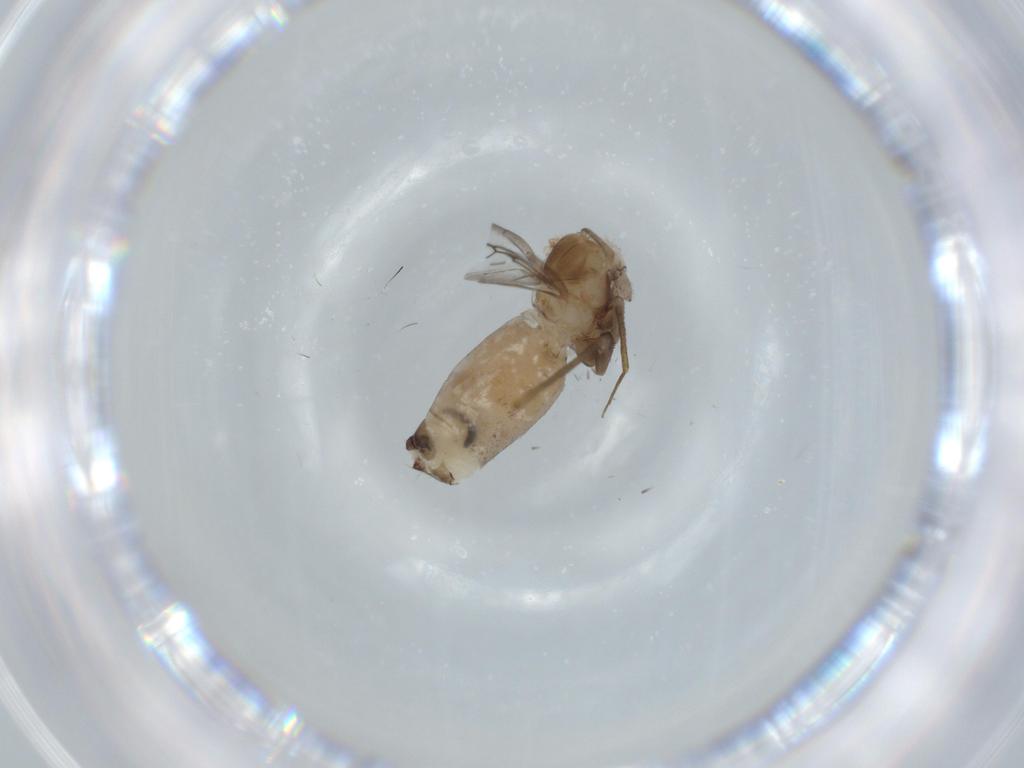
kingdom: Animalia
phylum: Arthropoda
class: Insecta
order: Psocodea
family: Lepidopsocidae
